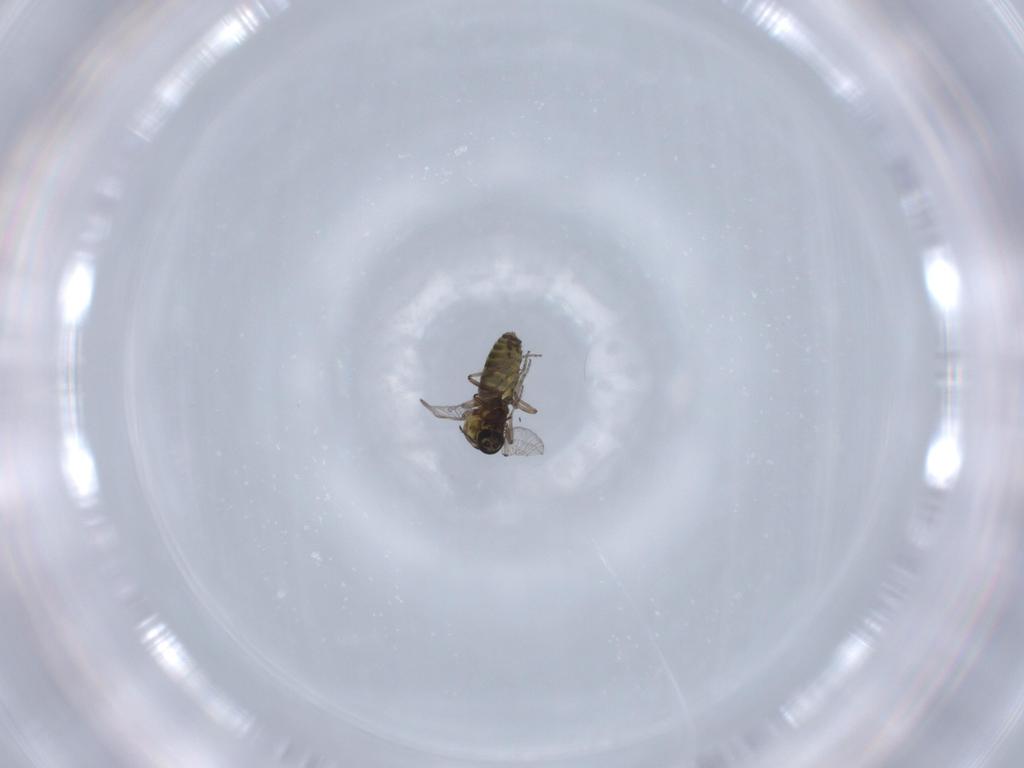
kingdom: Animalia
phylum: Arthropoda
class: Insecta
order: Diptera
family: Ceratopogonidae
